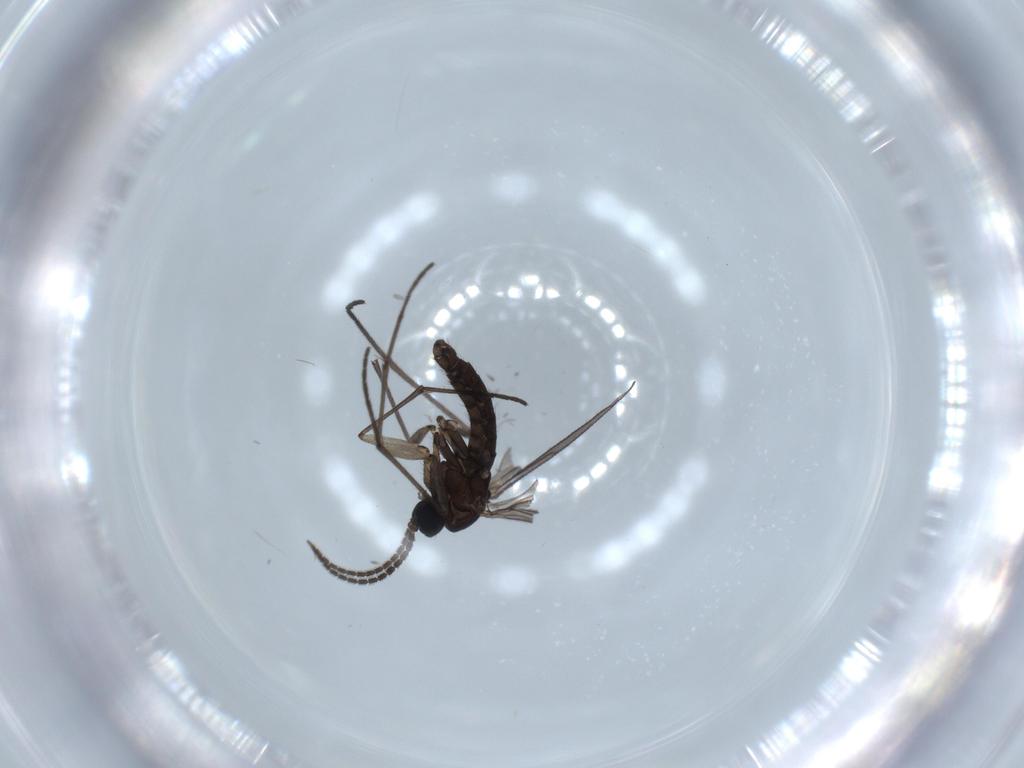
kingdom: Animalia
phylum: Arthropoda
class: Insecta
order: Diptera
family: Sciaridae
